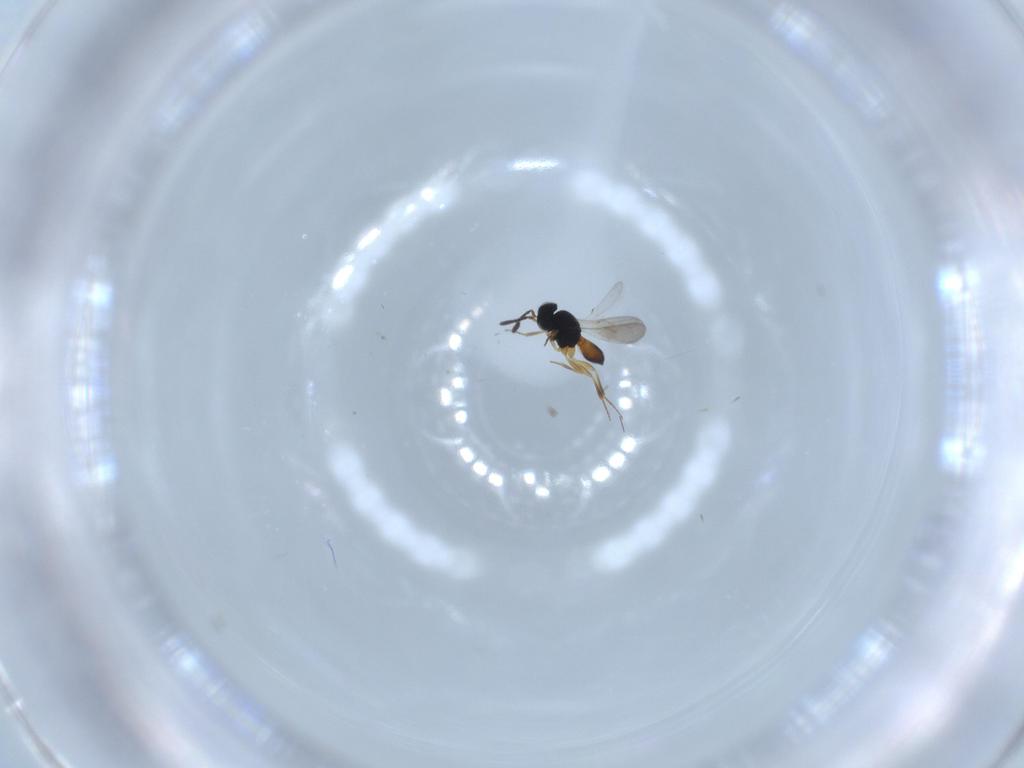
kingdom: Animalia
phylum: Arthropoda
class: Insecta
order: Hymenoptera
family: Scelionidae
